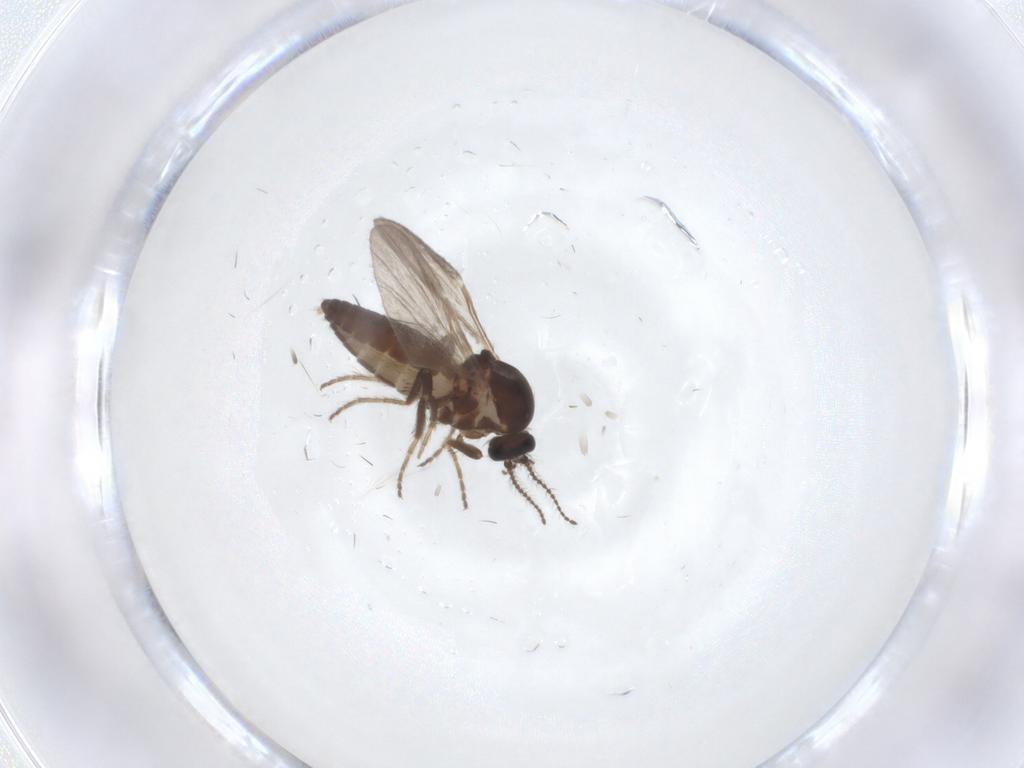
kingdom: Animalia
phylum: Arthropoda
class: Insecta
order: Diptera
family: Ceratopogonidae
